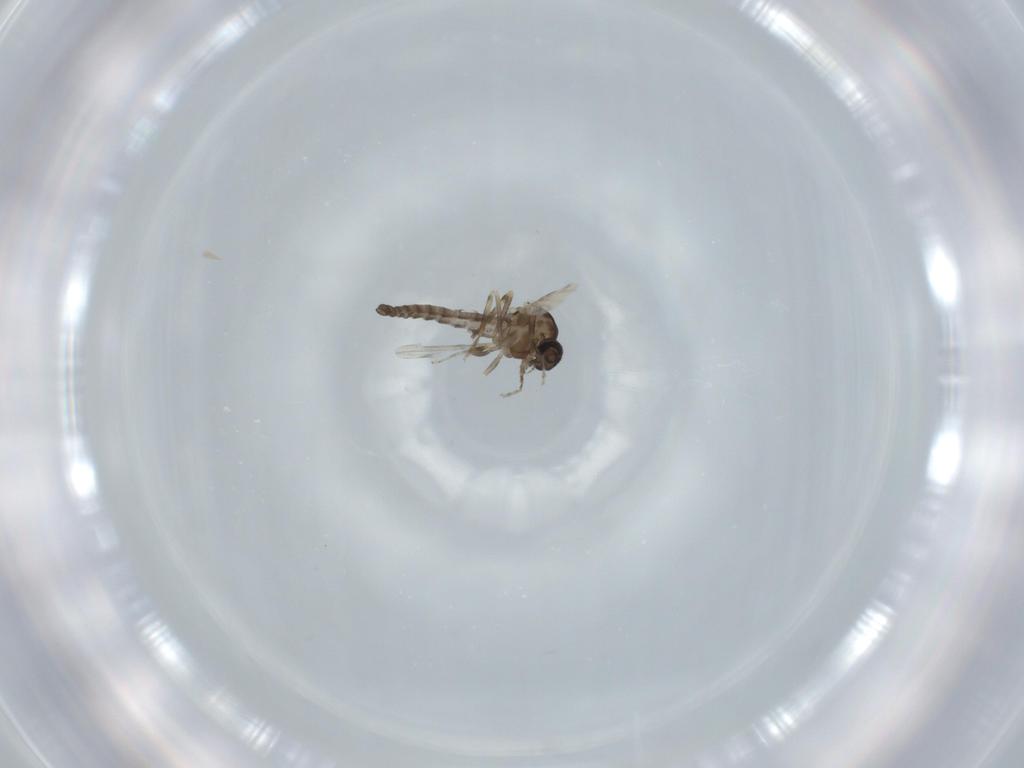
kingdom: Animalia
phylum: Arthropoda
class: Insecta
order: Diptera
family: Ceratopogonidae
